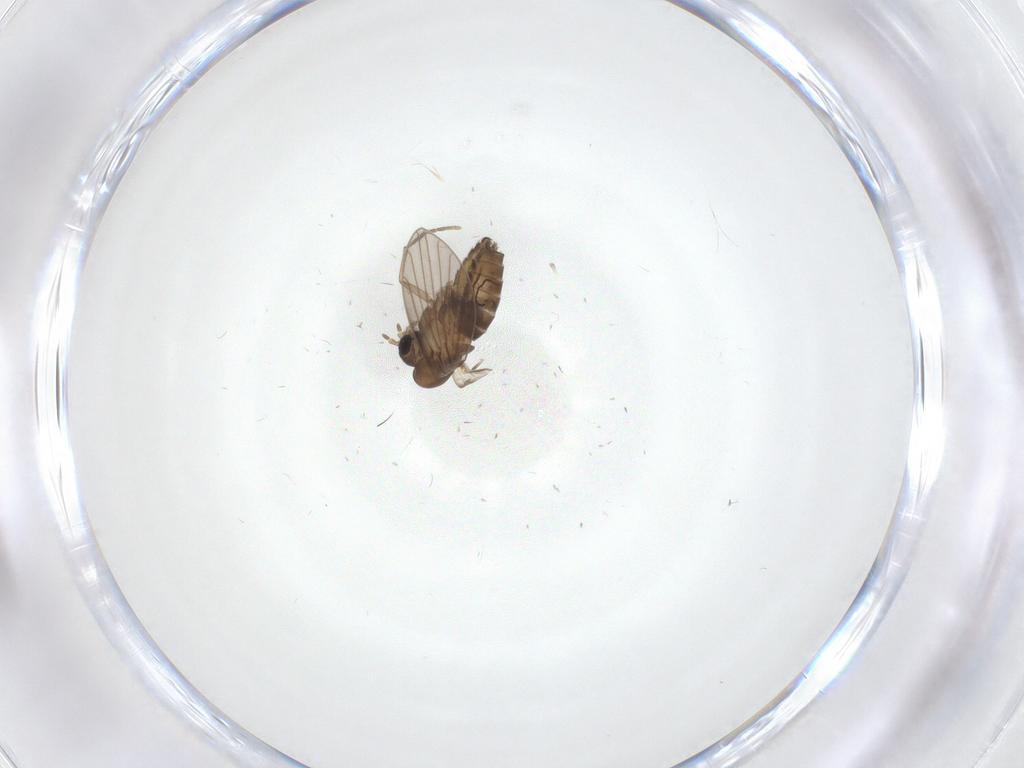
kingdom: Animalia
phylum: Arthropoda
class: Insecta
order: Diptera
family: Psychodidae
